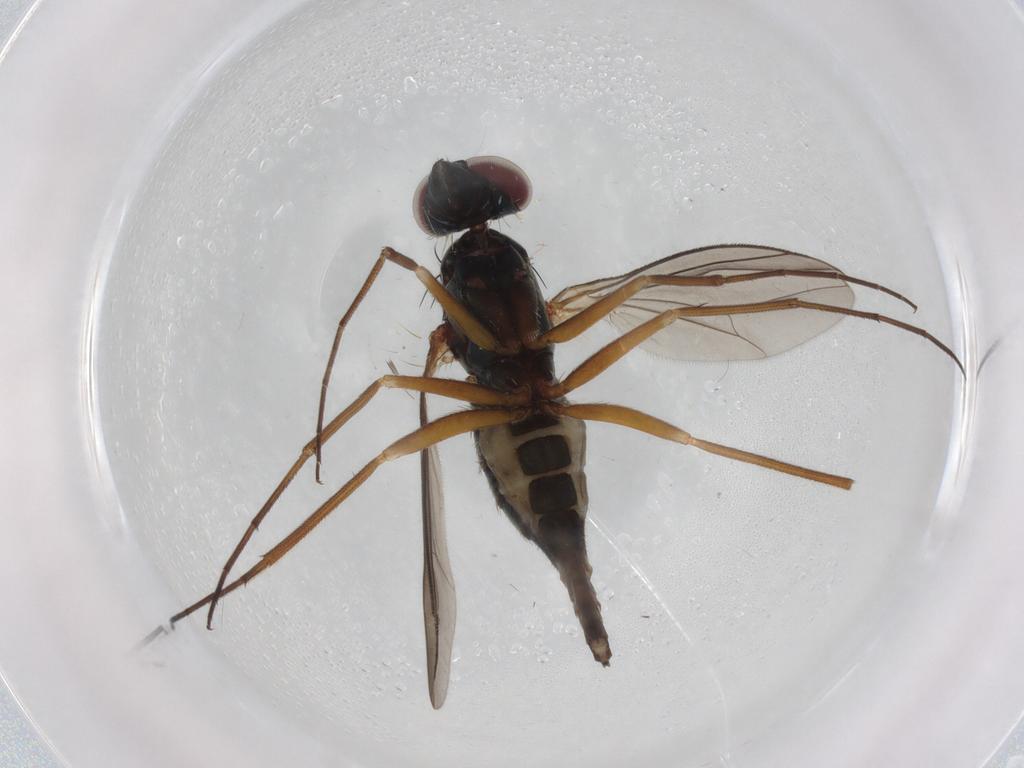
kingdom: Animalia
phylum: Arthropoda
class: Insecta
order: Diptera
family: Dolichopodidae
